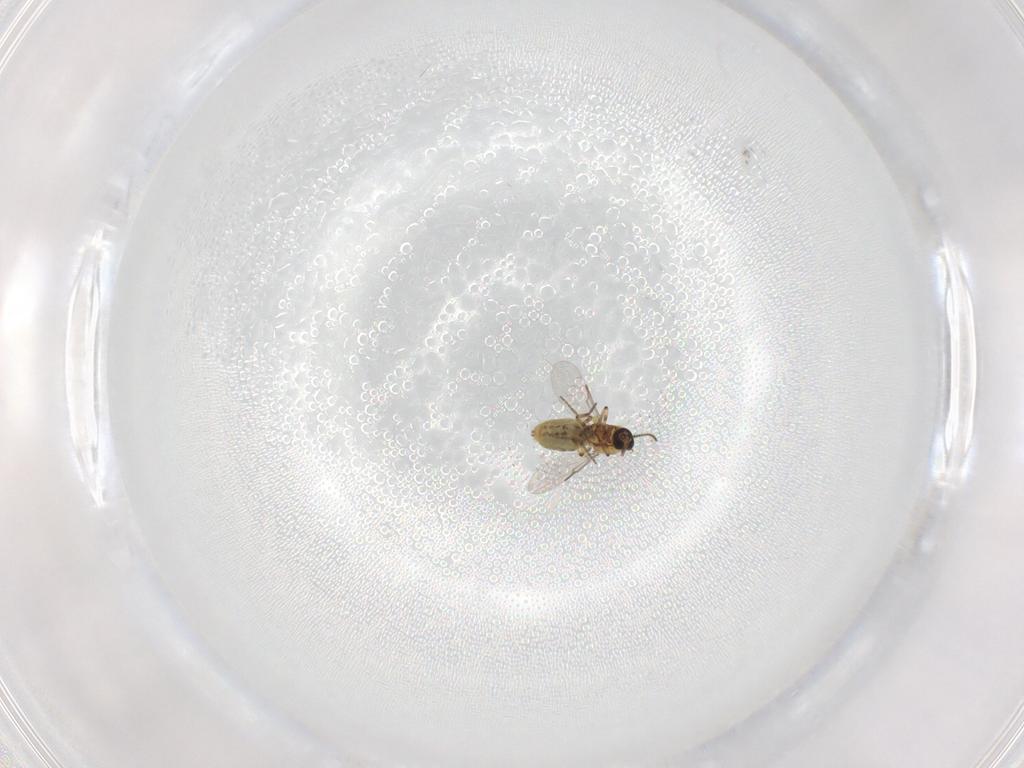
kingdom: Animalia
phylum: Arthropoda
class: Insecta
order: Diptera
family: Ceratopogonidae
